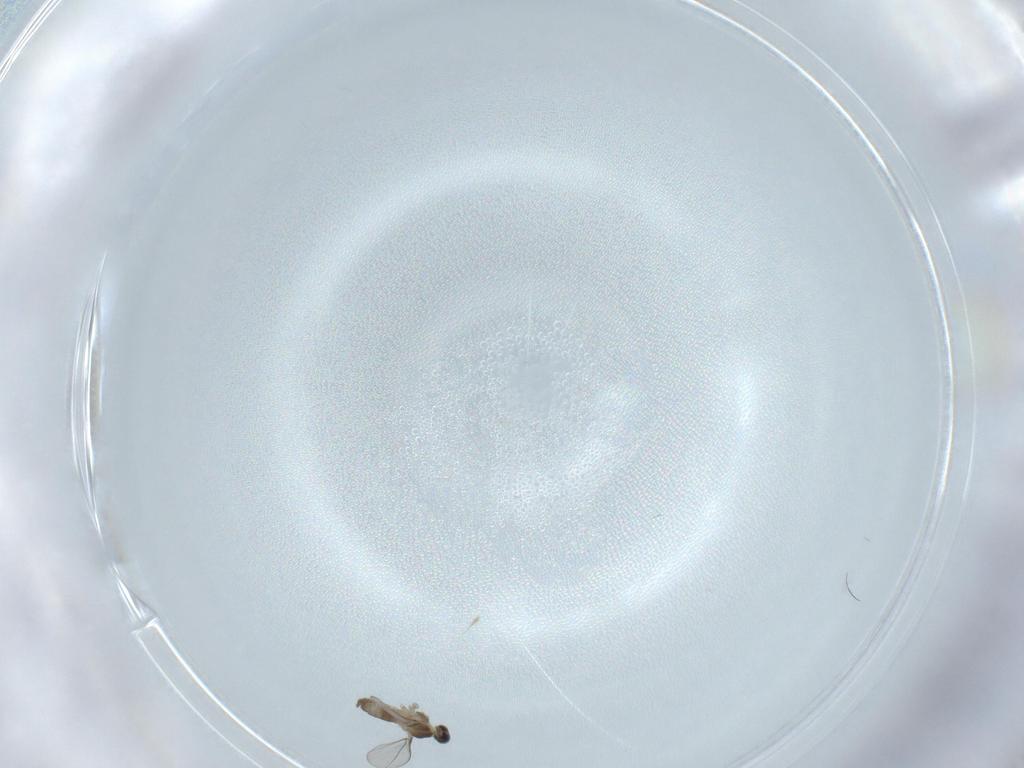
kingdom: Animalia
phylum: Arthropoda
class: Insecta
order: Diptera
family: Cecidomyiidae
